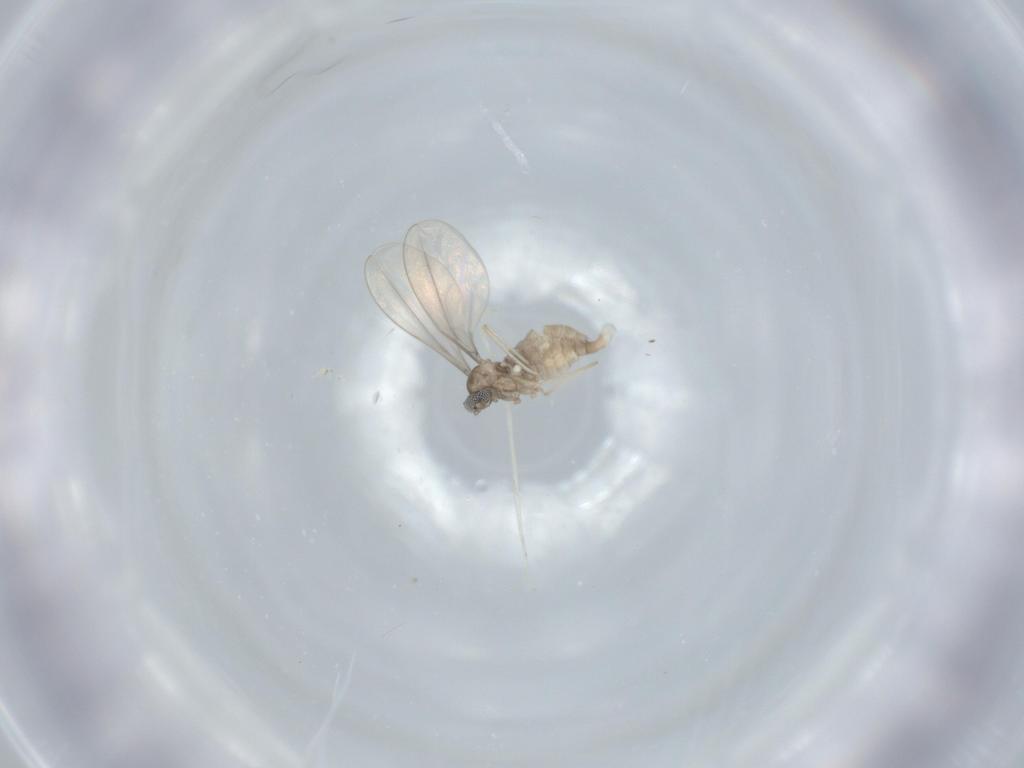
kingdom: Animalia
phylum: Arthropoda
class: Insecta
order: Diptera
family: Cecidomyiidae
